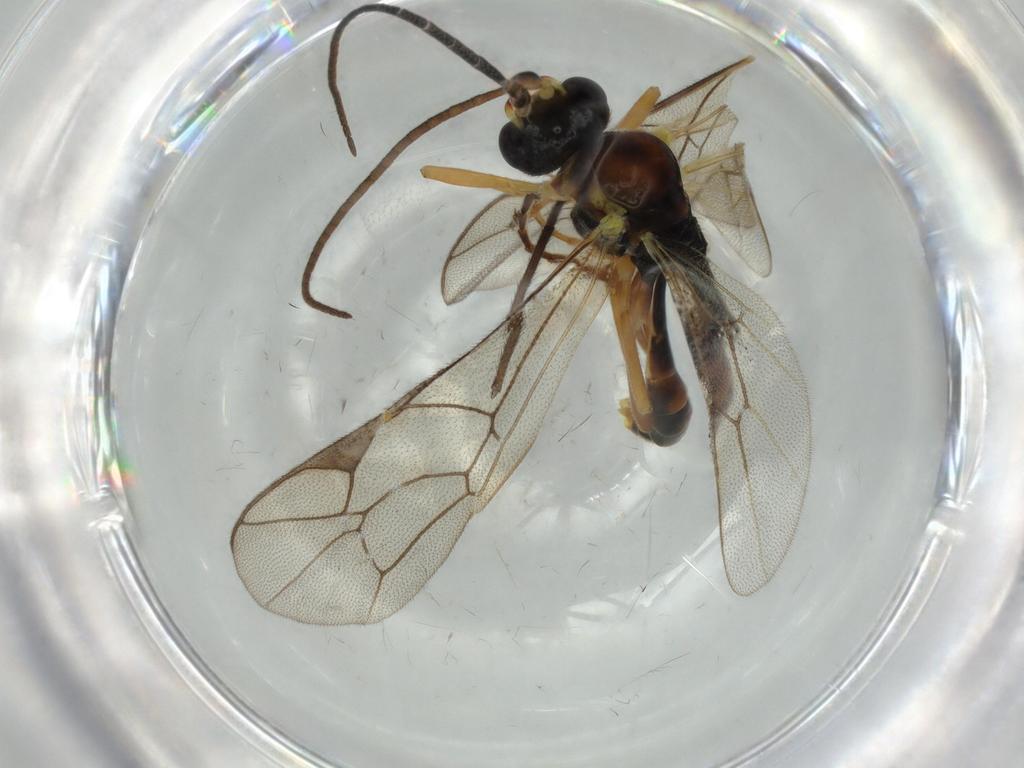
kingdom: Animalia
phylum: Arthropoda
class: Insecta
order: Hymenoptera
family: Ichneumonidae
